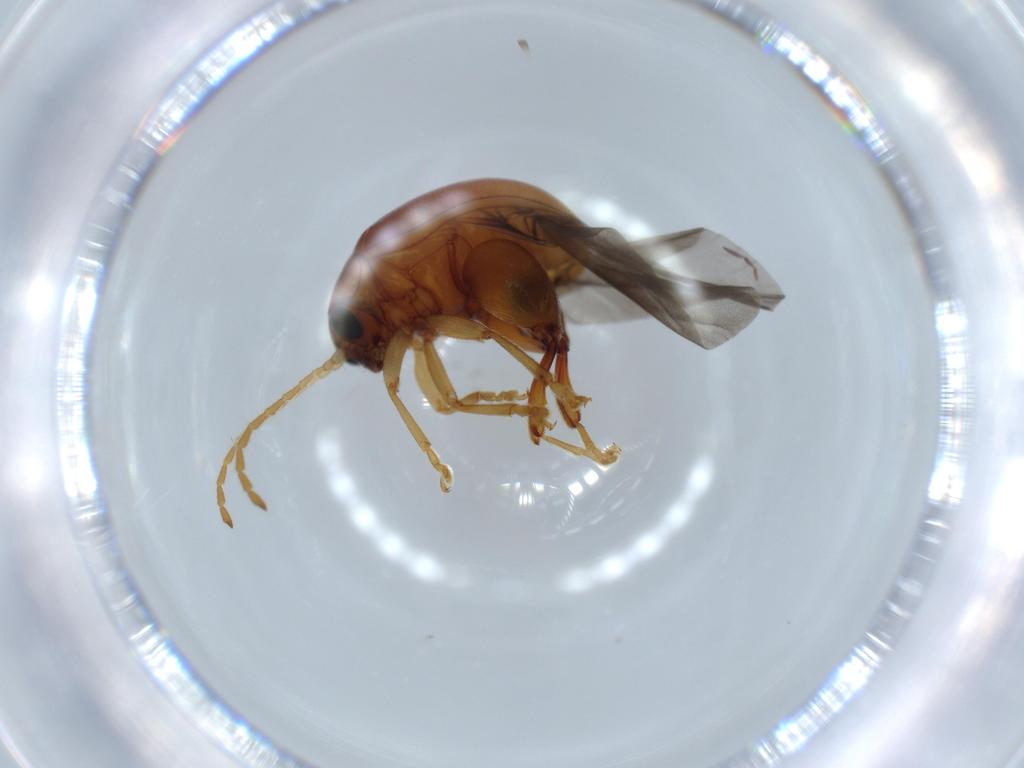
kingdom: Animalia
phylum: Arthropoda
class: Insecta
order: Coleoptera
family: Chrysomelidae
